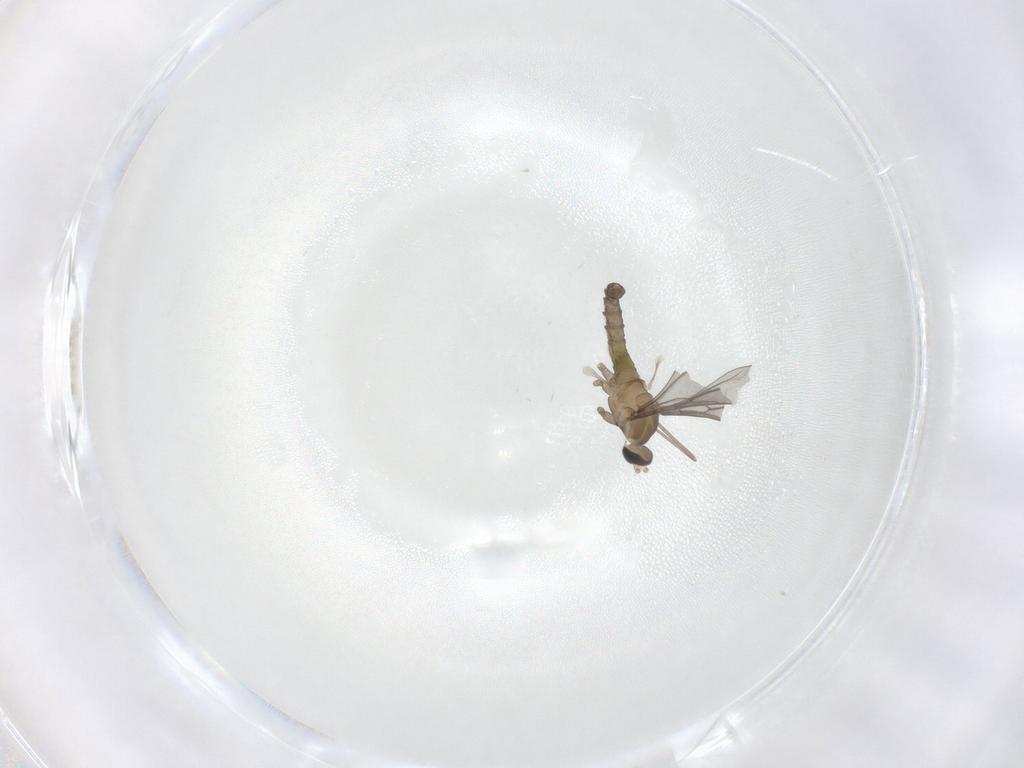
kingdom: Animalia
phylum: Arthropoda
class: Insecta
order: Diptera
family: Cecidomyiidae
